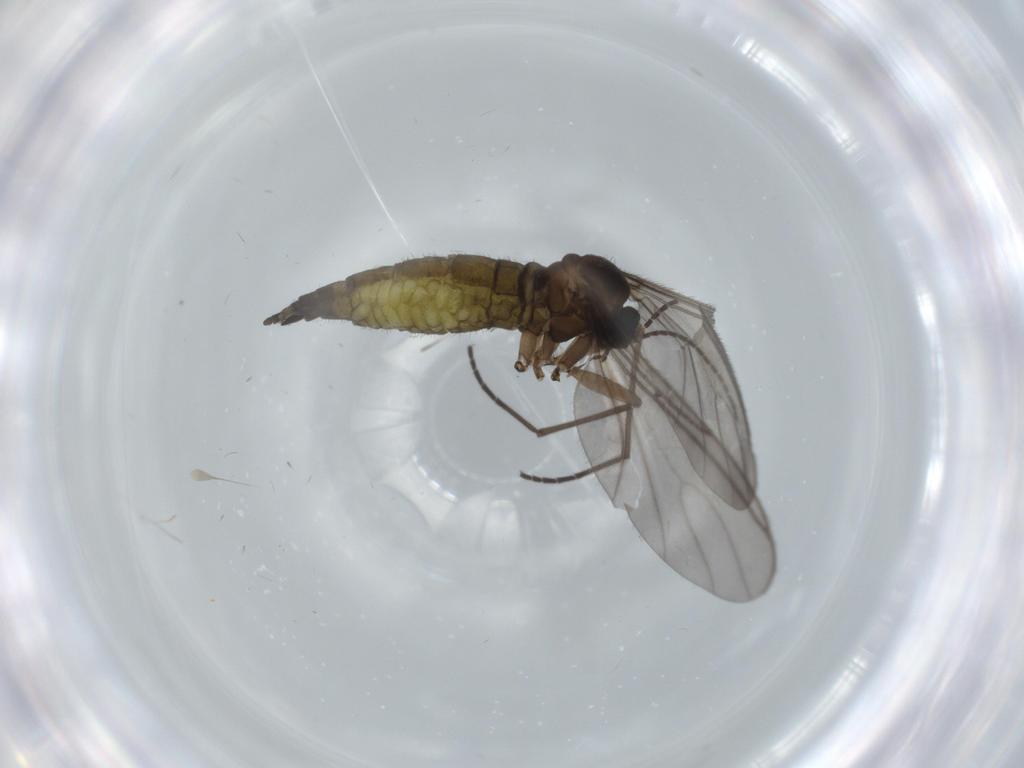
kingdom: Animalia
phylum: Arthropoda
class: Insecta
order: Diptera
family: Sciaridae
